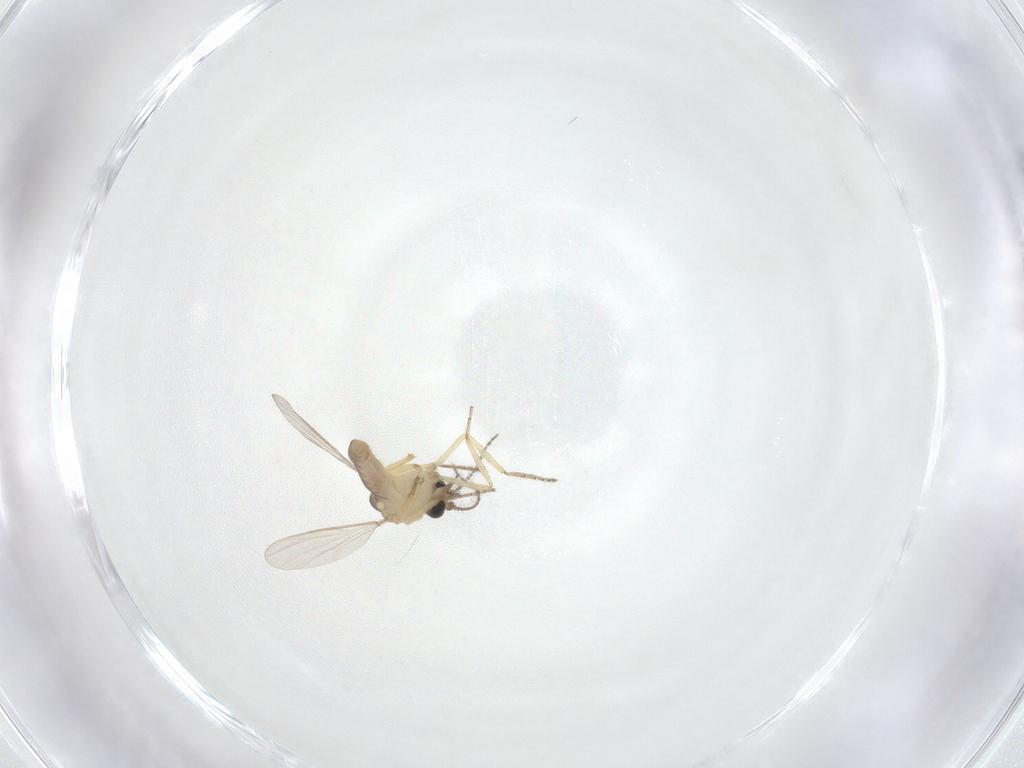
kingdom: Animalia
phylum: Arthropoda
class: Insecta
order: Diptera
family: Ceratopogonidae
